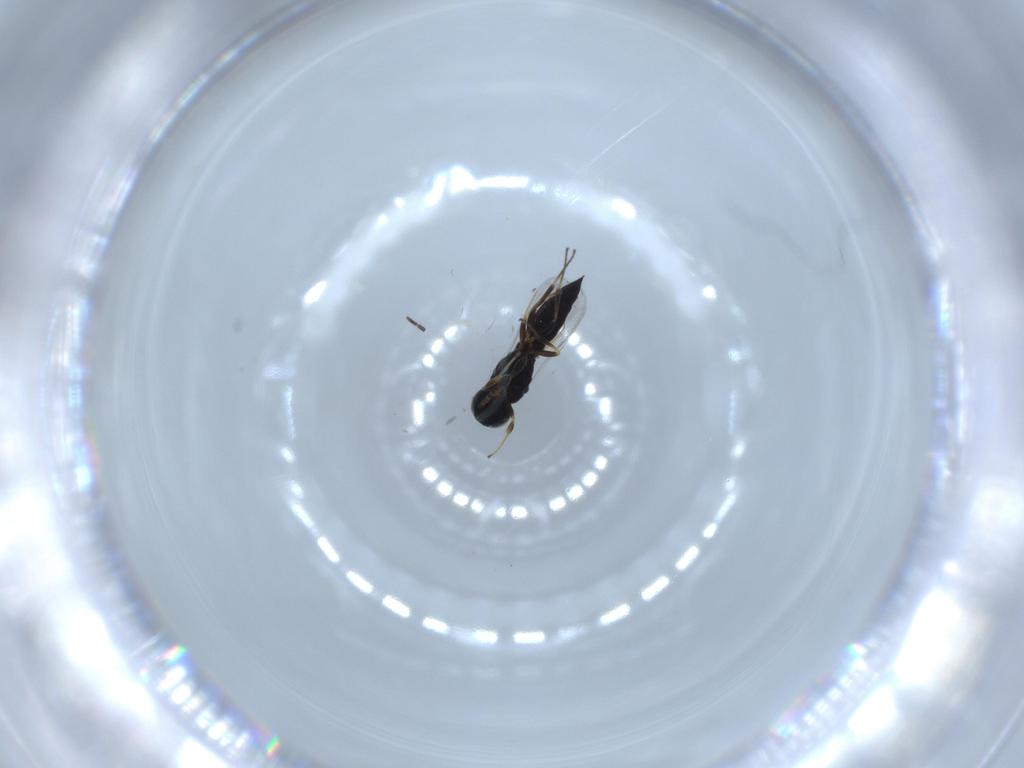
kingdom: Animalia
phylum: Arthropoda
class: Insecta
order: Hymenoptera
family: Scelionidae
